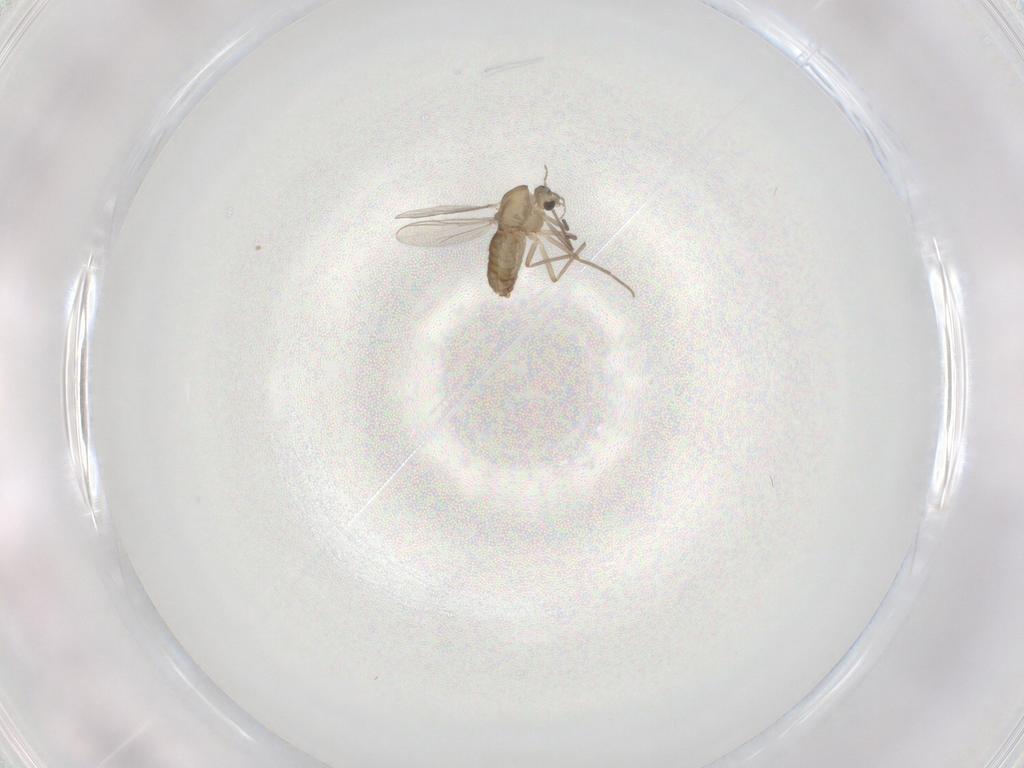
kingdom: Animalia
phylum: Arthropoda
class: Insecta
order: Diptera
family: Chironomidae
